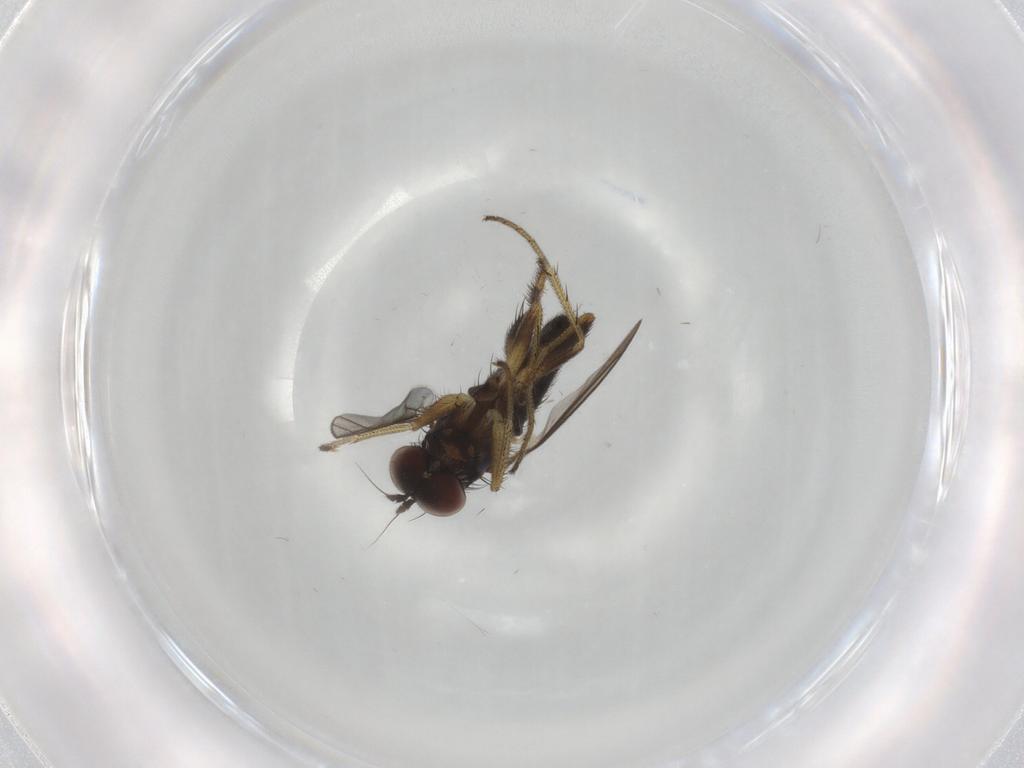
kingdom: Animalia
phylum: Arthropoda
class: Insecta
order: Diptera
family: Dolichopodidae
